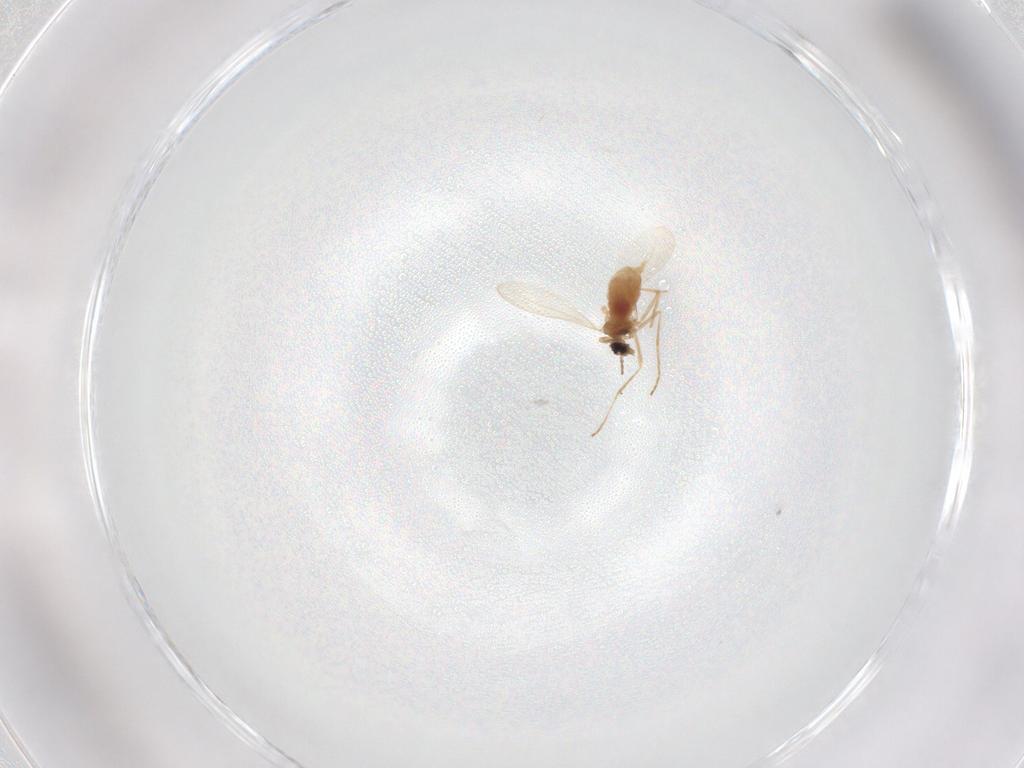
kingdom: Animalia
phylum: Arthropoda
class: Insecta
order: Diptera
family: Cecidomyiidae
